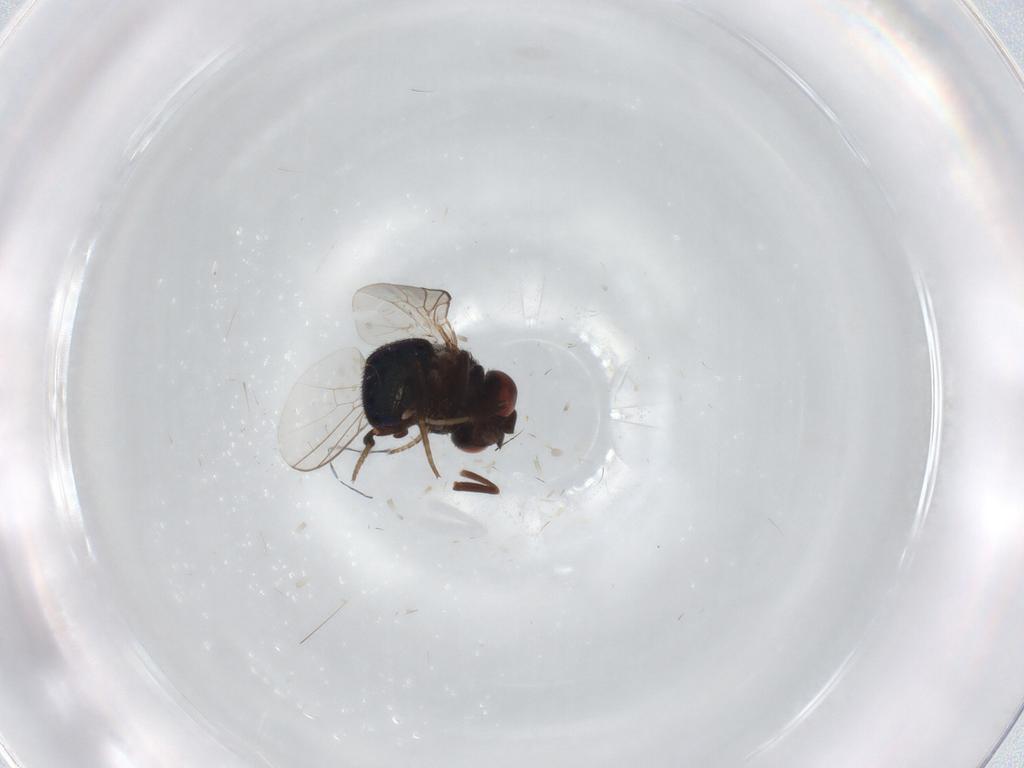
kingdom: Animalia
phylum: Arthropoda
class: Insecta
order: Diptera
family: Cryptochetidae
